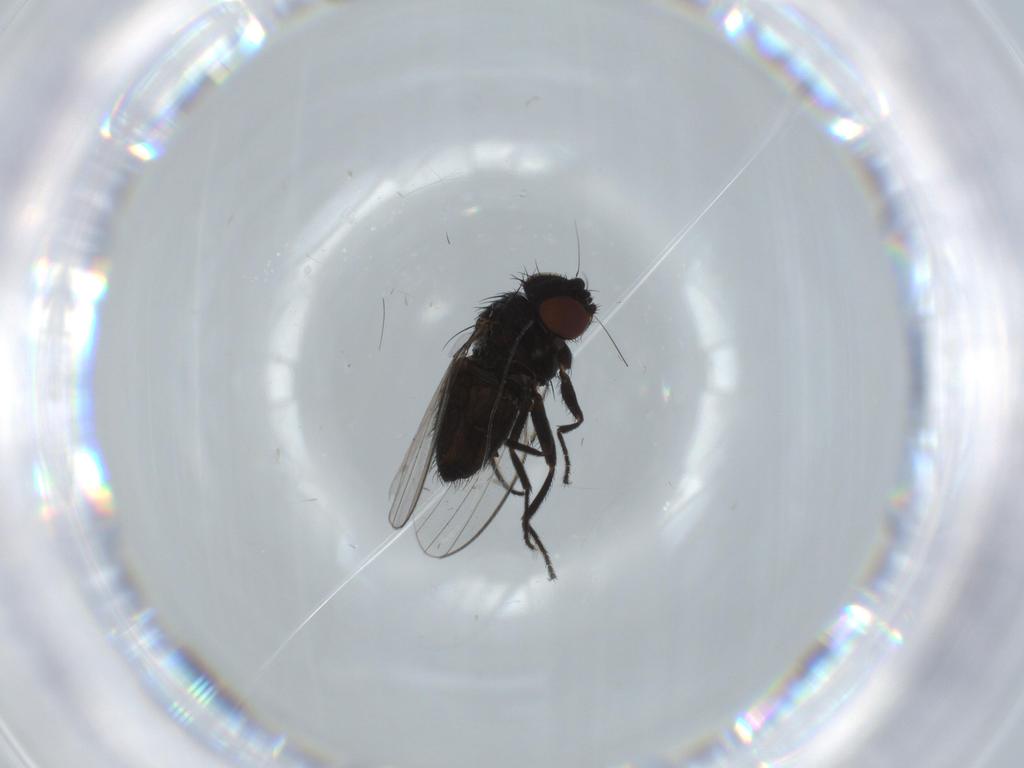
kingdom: Animalia
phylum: Arthropoda
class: Insecta
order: Diptera
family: Milichiidae
